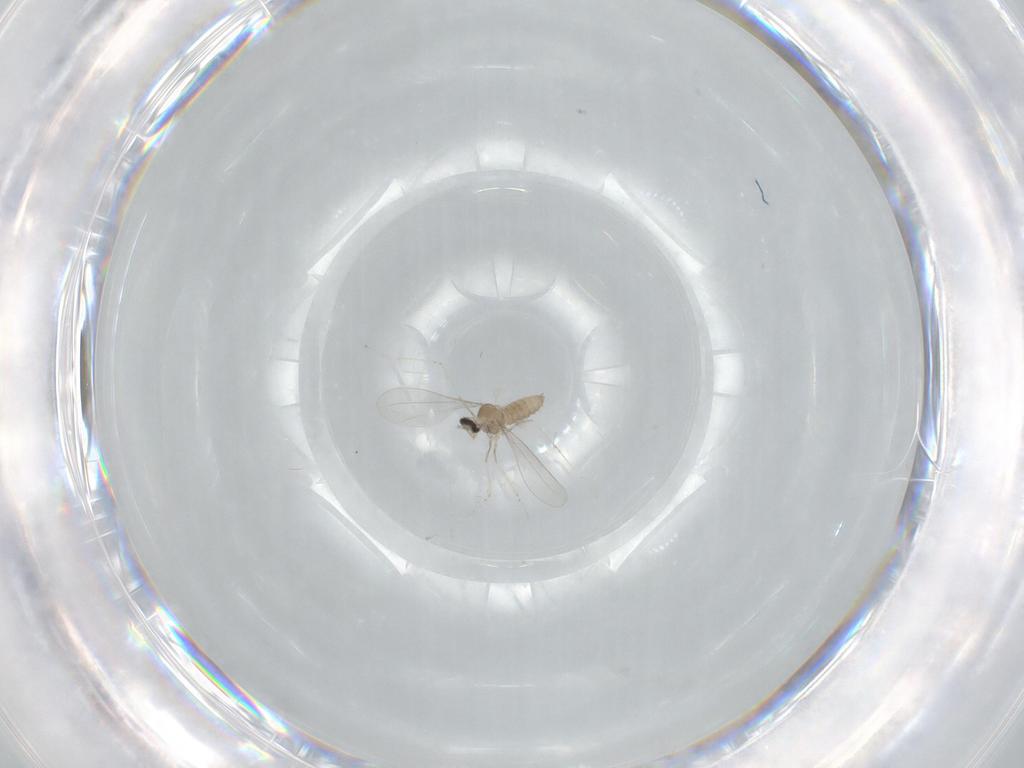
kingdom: Animalia
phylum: Arthropoda
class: Insecta
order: Diptera
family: Cecidomyiidae
